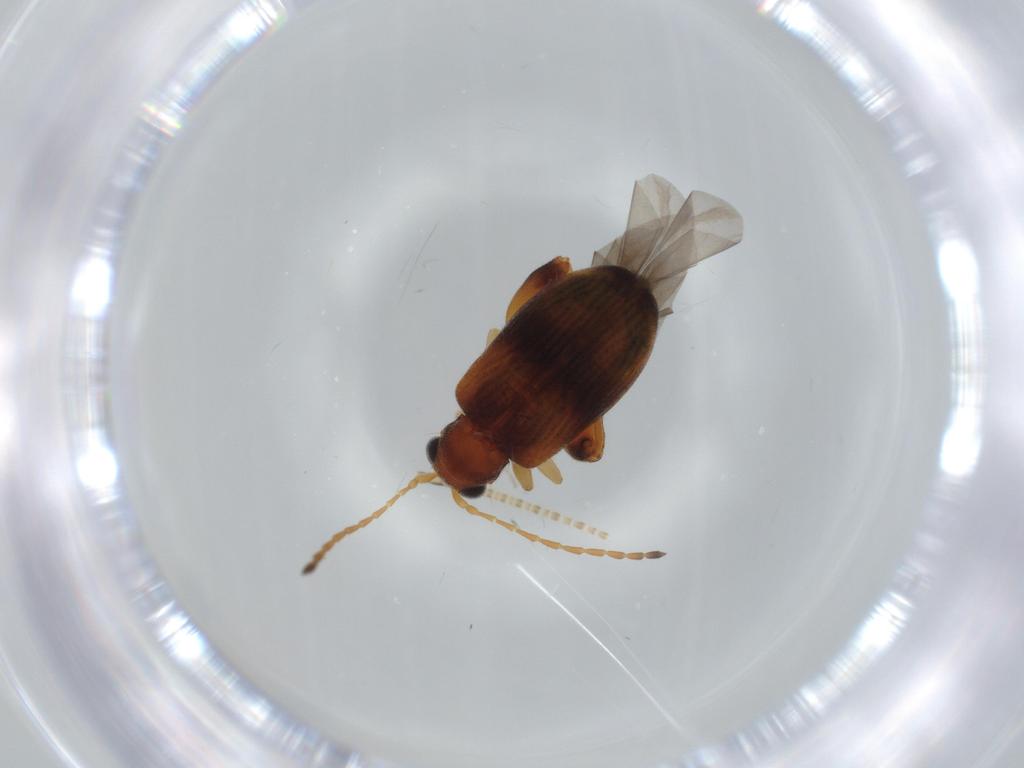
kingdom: Animalia
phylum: Arthropoda
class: Insecta
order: Coleoptera
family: Chrysomelidae
